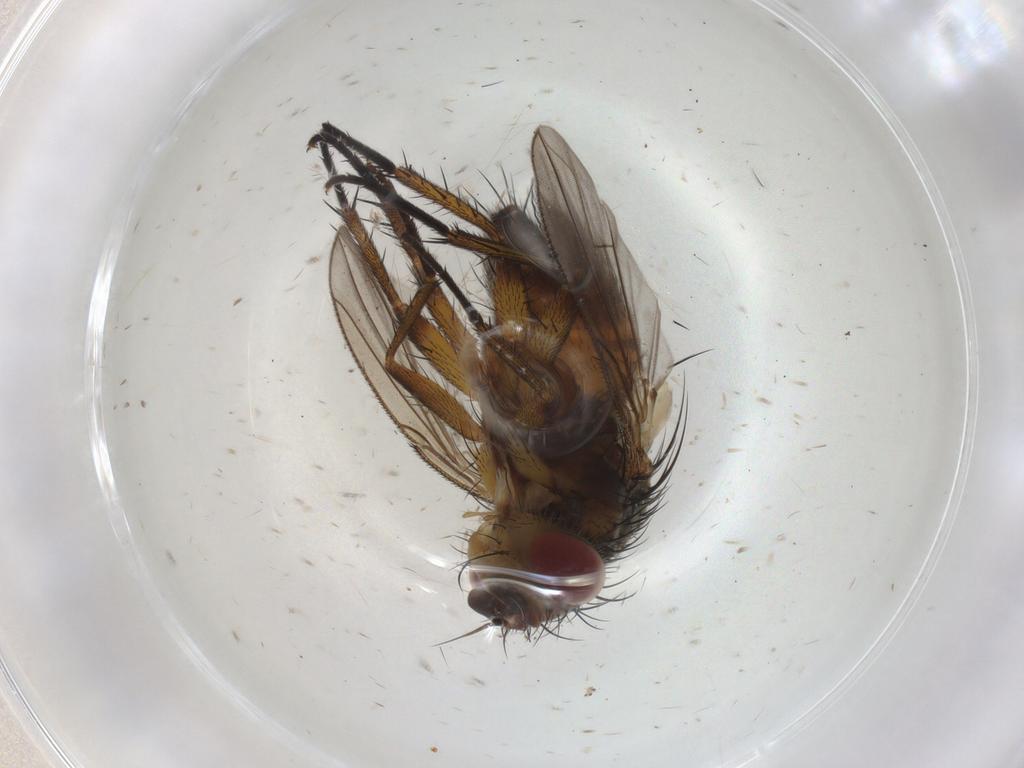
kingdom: Animalia
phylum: Arthropoda
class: Insecta
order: Diptera
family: Tachinidae
